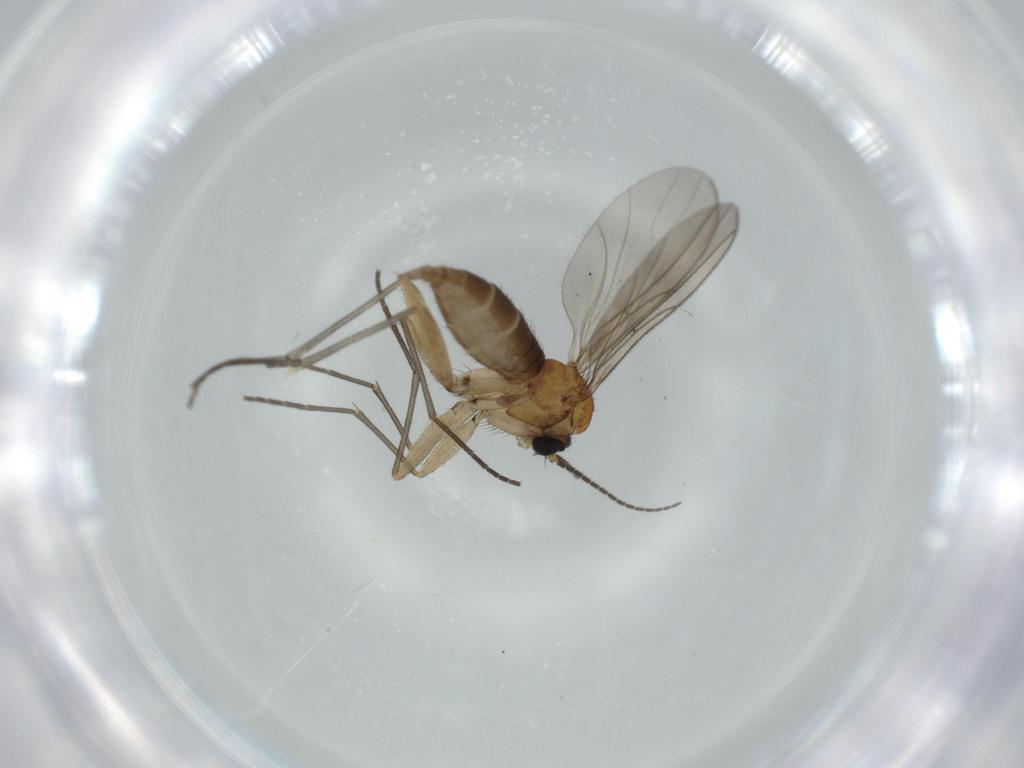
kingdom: Animalia
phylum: Arthropoda
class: Insecta
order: Diptera
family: Sciaridae
